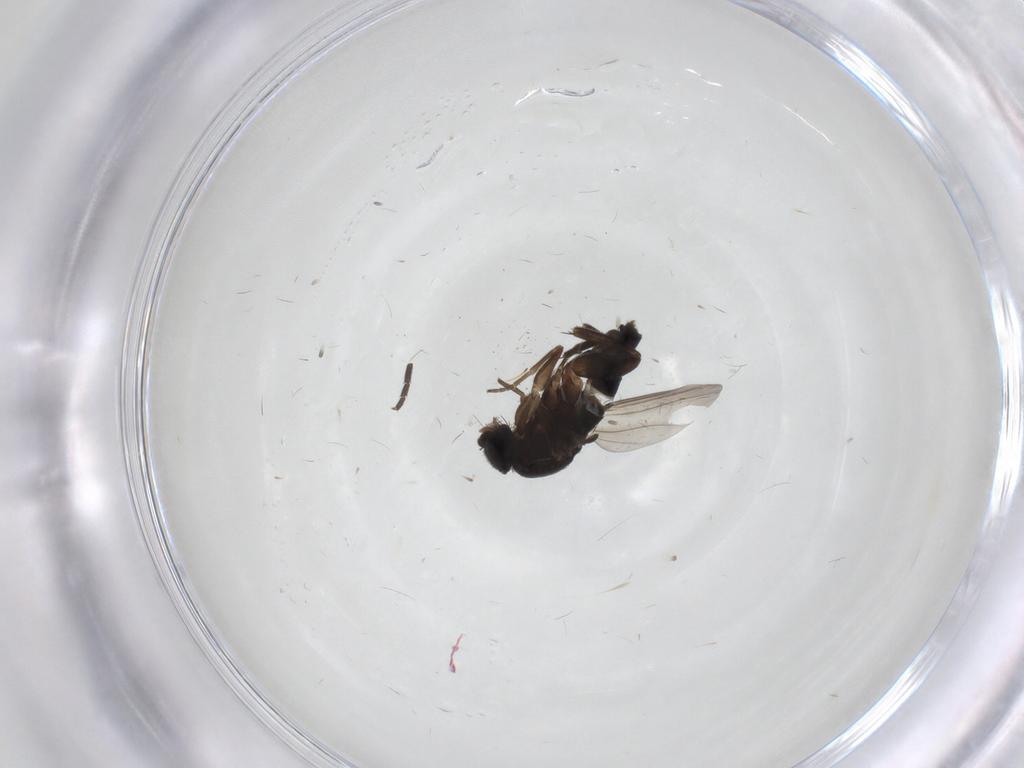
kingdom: Animalia
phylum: Arthropoda
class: Insecta
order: Diptera
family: Phoridae
